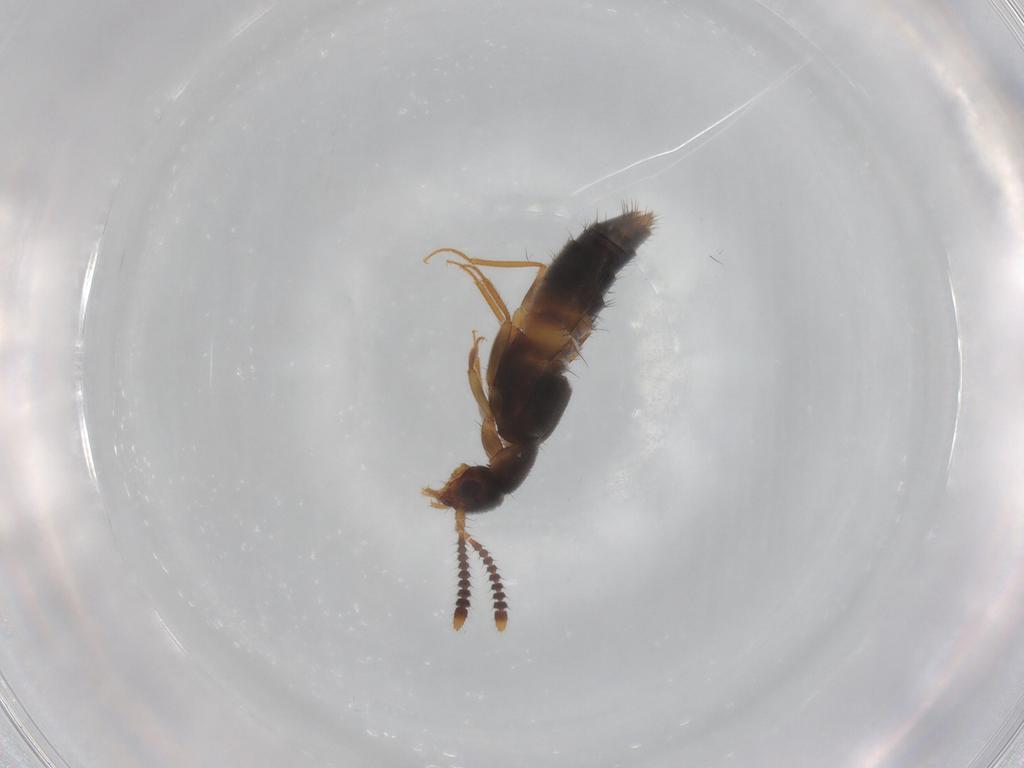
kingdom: Animalia
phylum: Arthropoda
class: Insecta
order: Coleoptera
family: Staphylinidae
